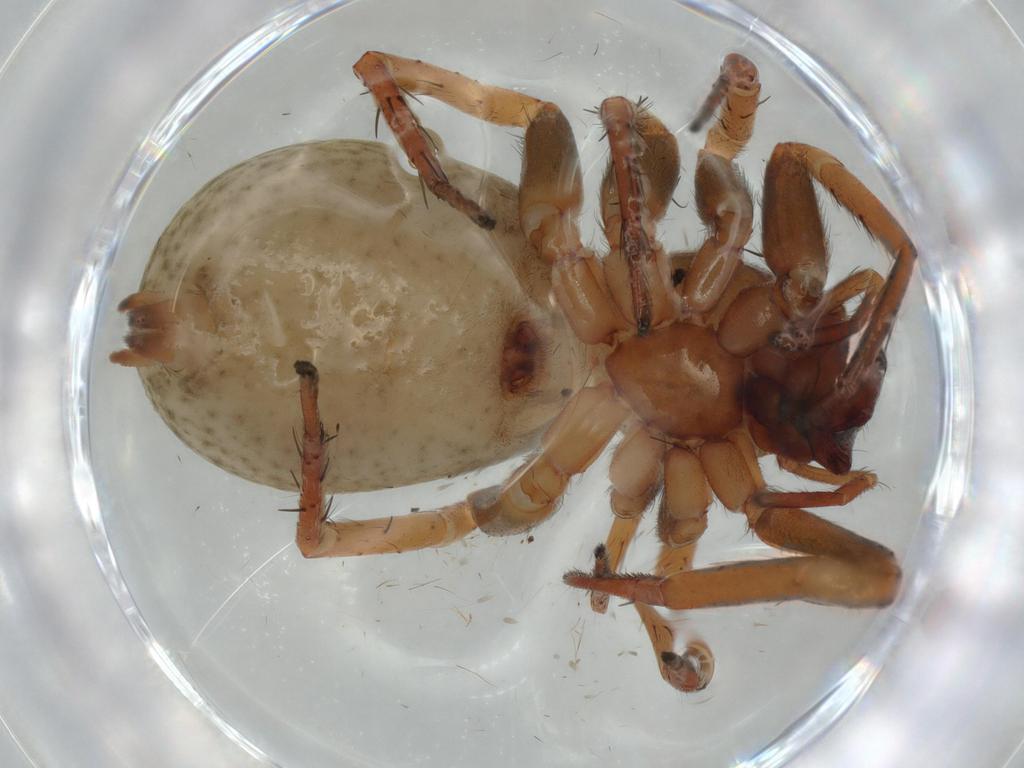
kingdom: Animalia
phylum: Arthropoda
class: Arachnida
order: Araneae
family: Anyphaenidae
